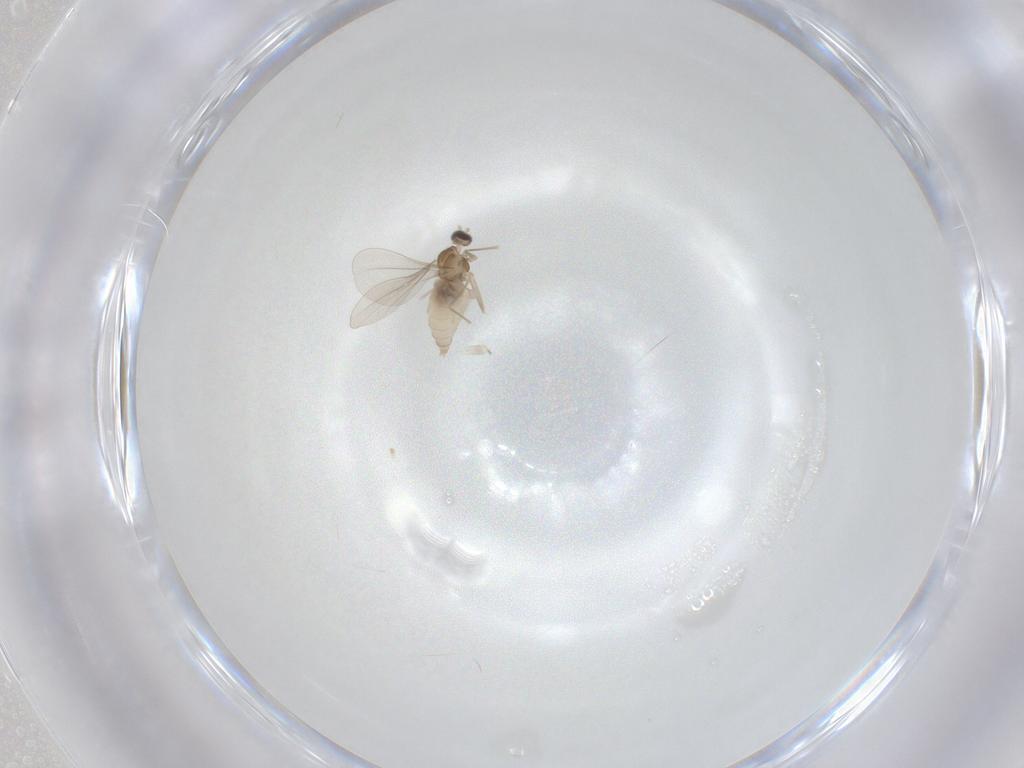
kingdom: Animalia
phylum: Arthropoda
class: Insecta
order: Diptera
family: Cecidomyiidae
